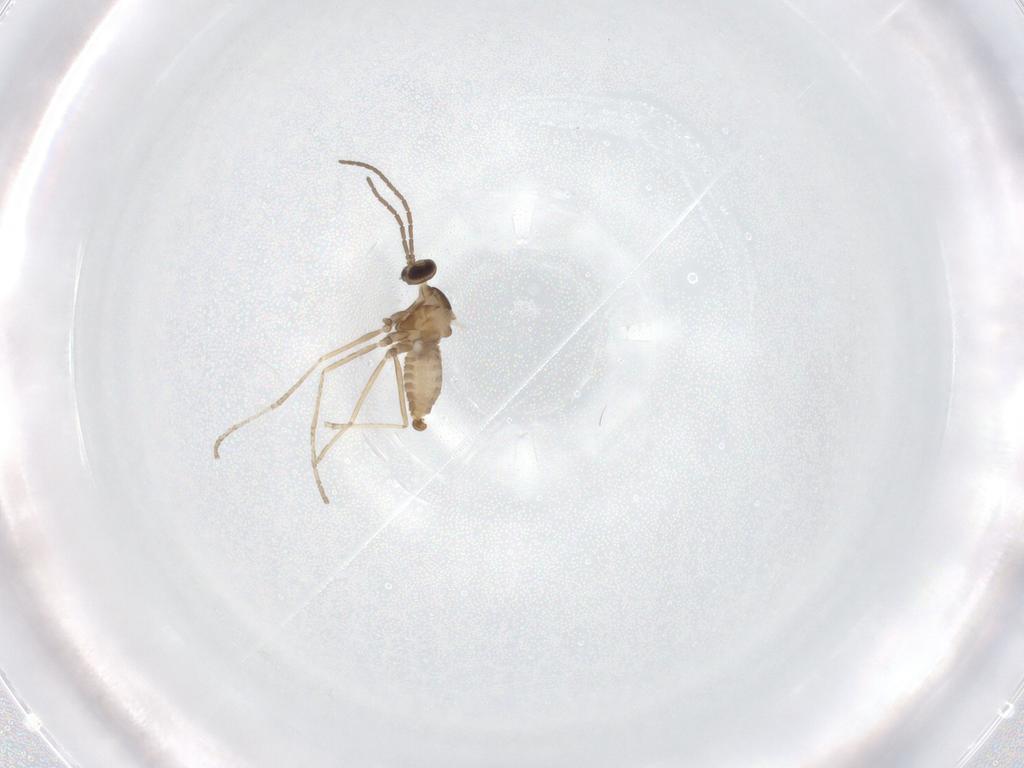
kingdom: Animalia
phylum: Arthropoda
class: Insecta
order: Diptera
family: Cecidomyiidae
